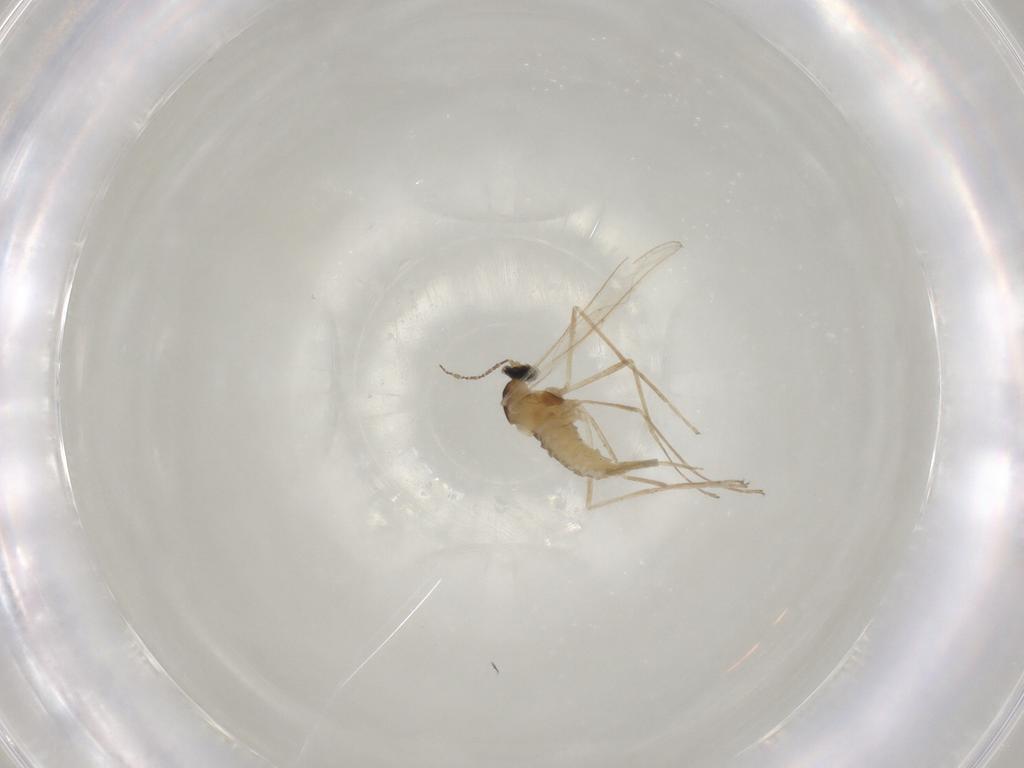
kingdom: Animalia
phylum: Arthropoda
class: Insecta
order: Diptera
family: Cecidomyiidae
